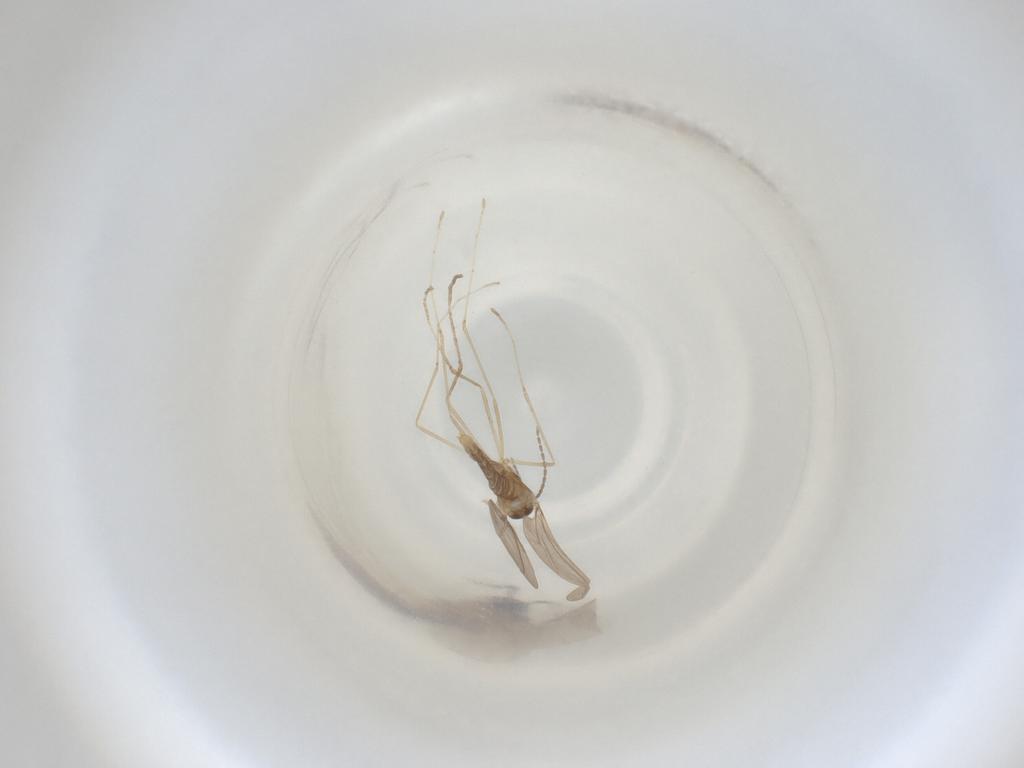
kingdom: Animalia
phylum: Arthropoda
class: Insecta
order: Diptera
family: Cecidomyiidae
